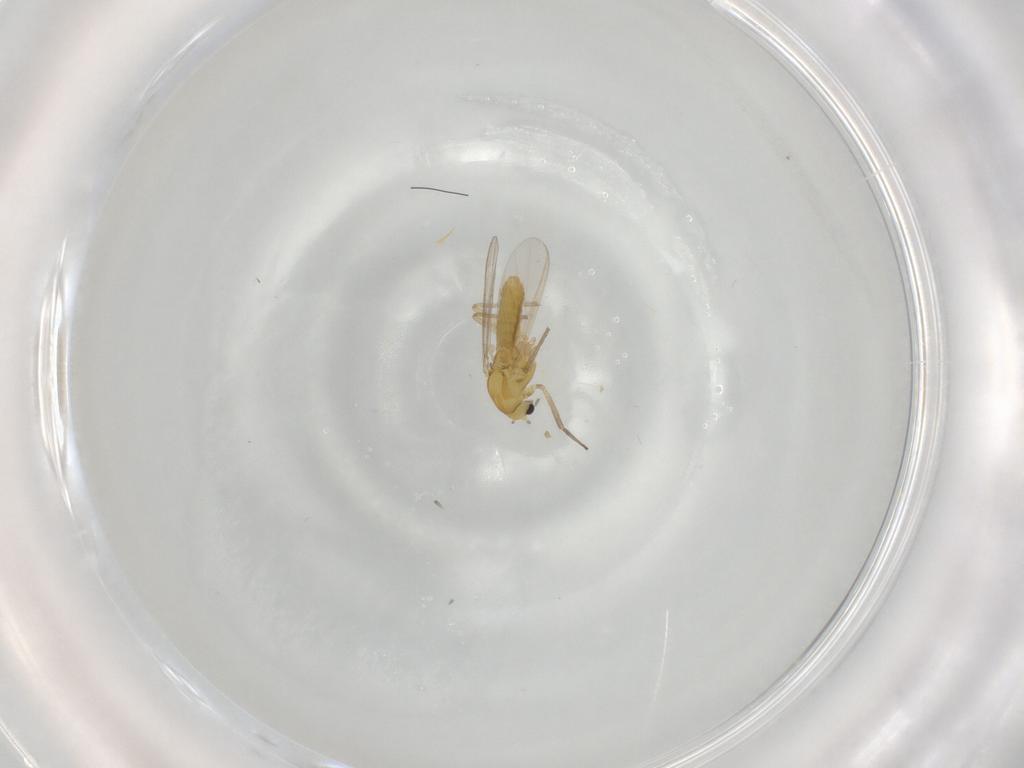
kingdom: Animalia
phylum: Arthropoda
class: Insecta
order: Diptera
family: Chironomidae
